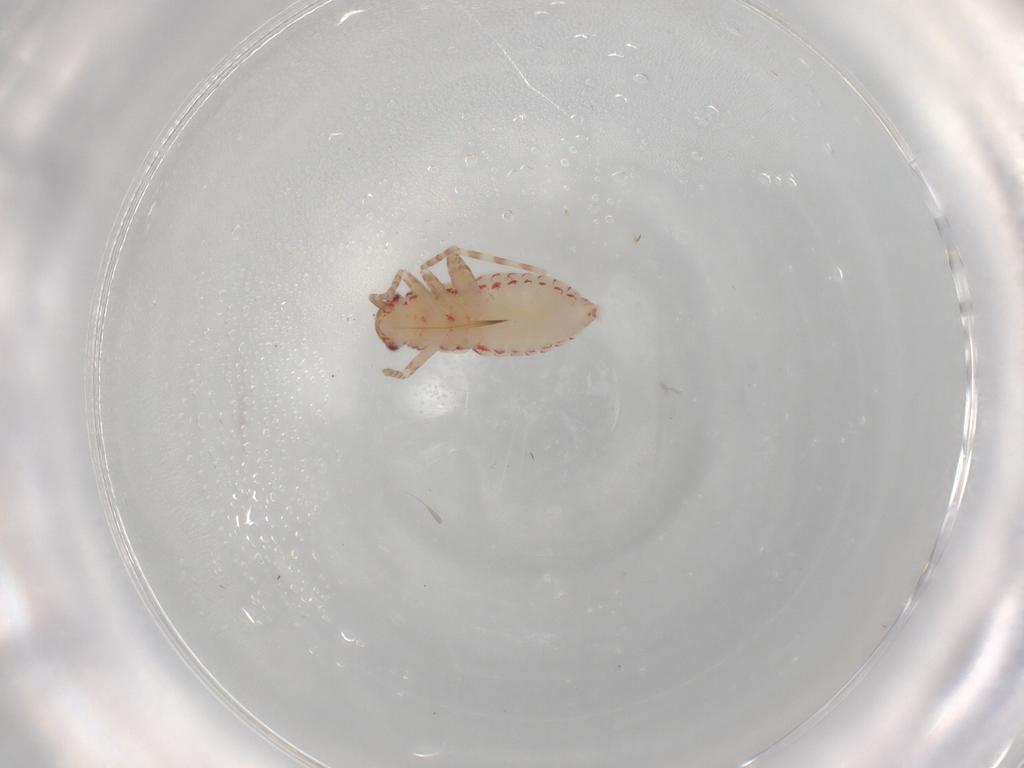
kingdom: Animalia
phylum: Arthropoda
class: Insecta
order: Hemiptera
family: Miridae
